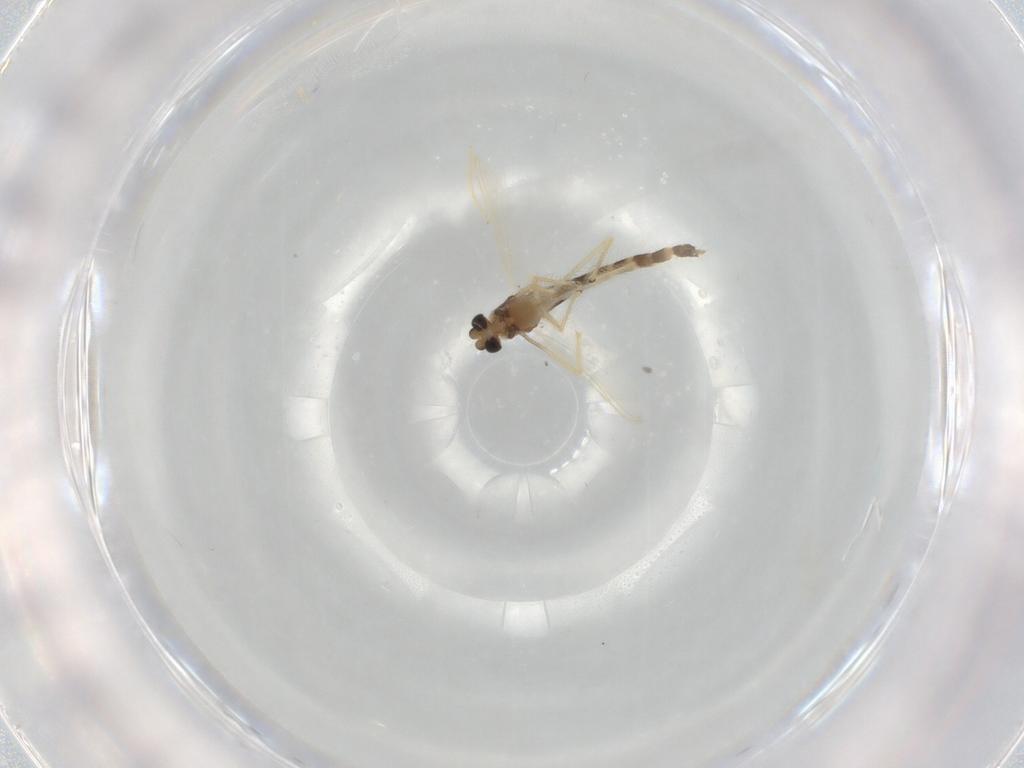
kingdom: Animalia
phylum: Arthropoda
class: Insecta
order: Diptera
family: Chironomidae
